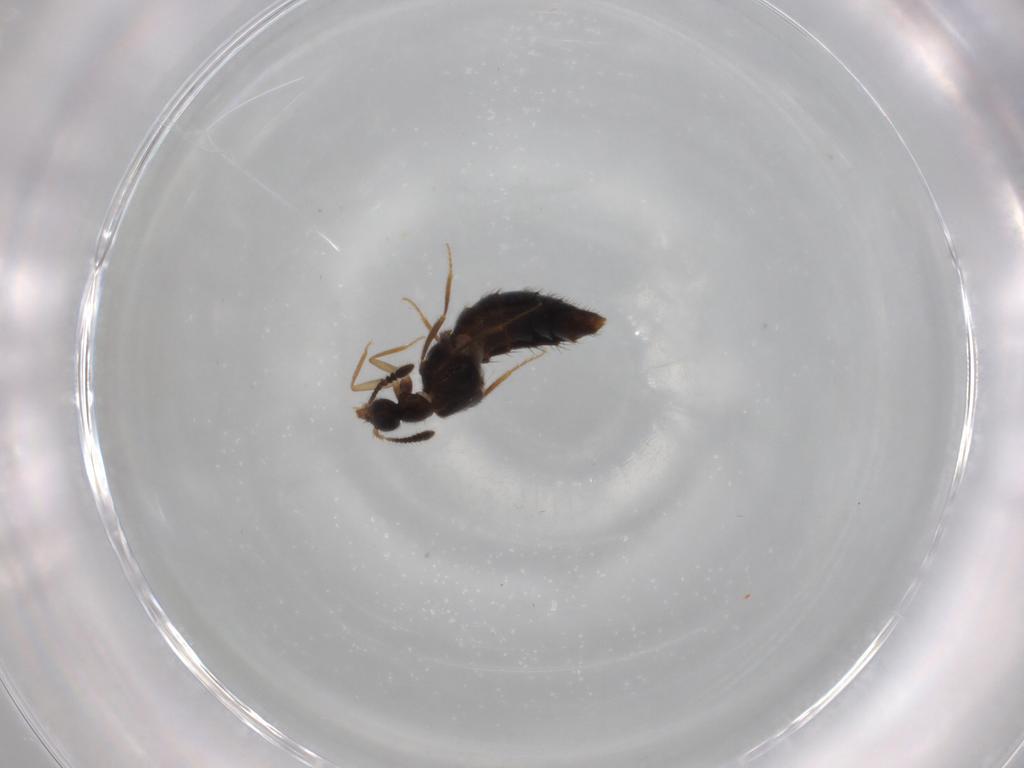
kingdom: Animalia
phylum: Arthropoda
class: Insecta
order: Coleoptera
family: Staphylinidae
